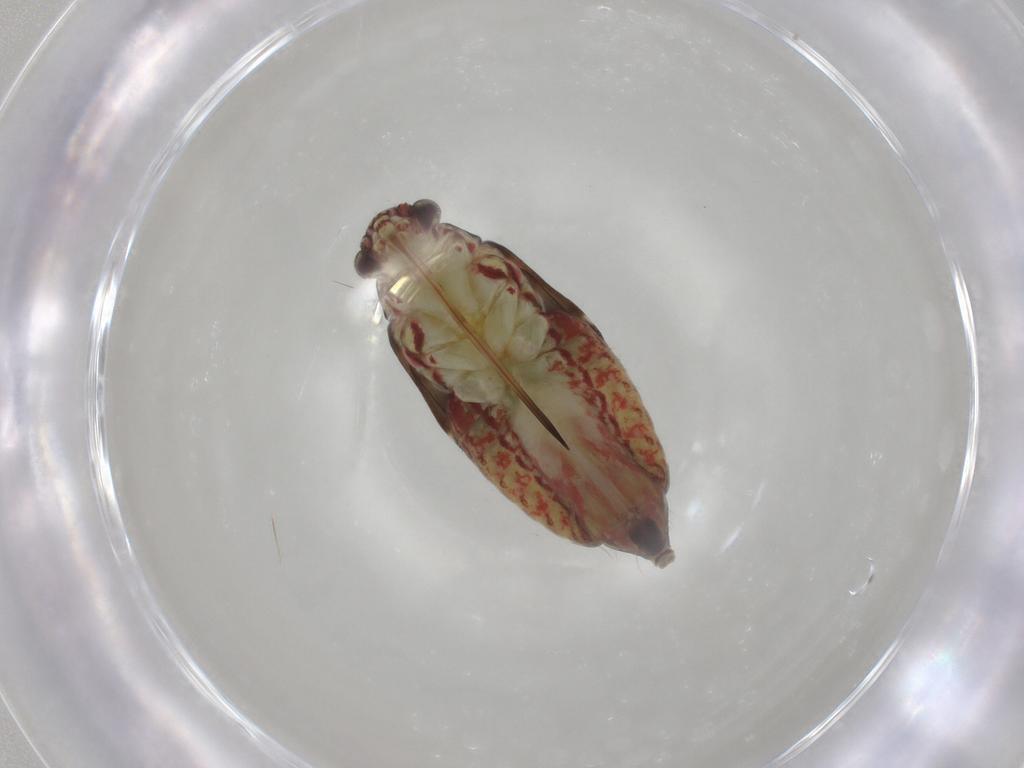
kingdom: Animalia
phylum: Arthropoda
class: Insecta
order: Hemiptera
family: Miridae
